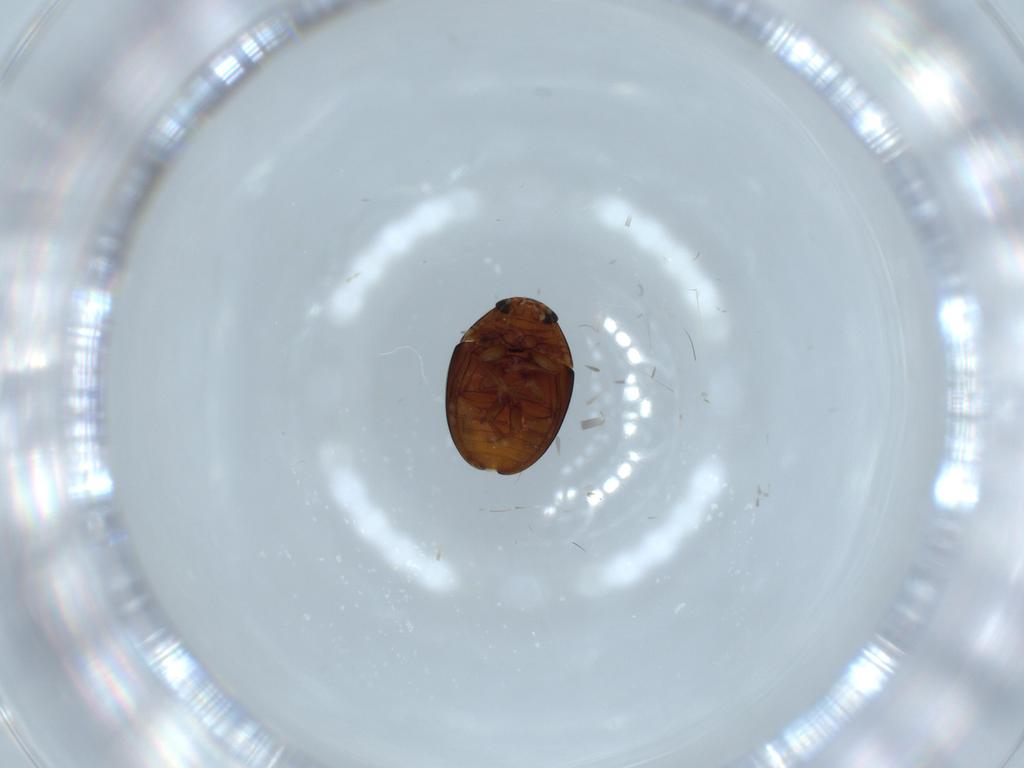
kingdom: Animalia
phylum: Arthropoda
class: Insecta
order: Coleoptera
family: Phalacridae
